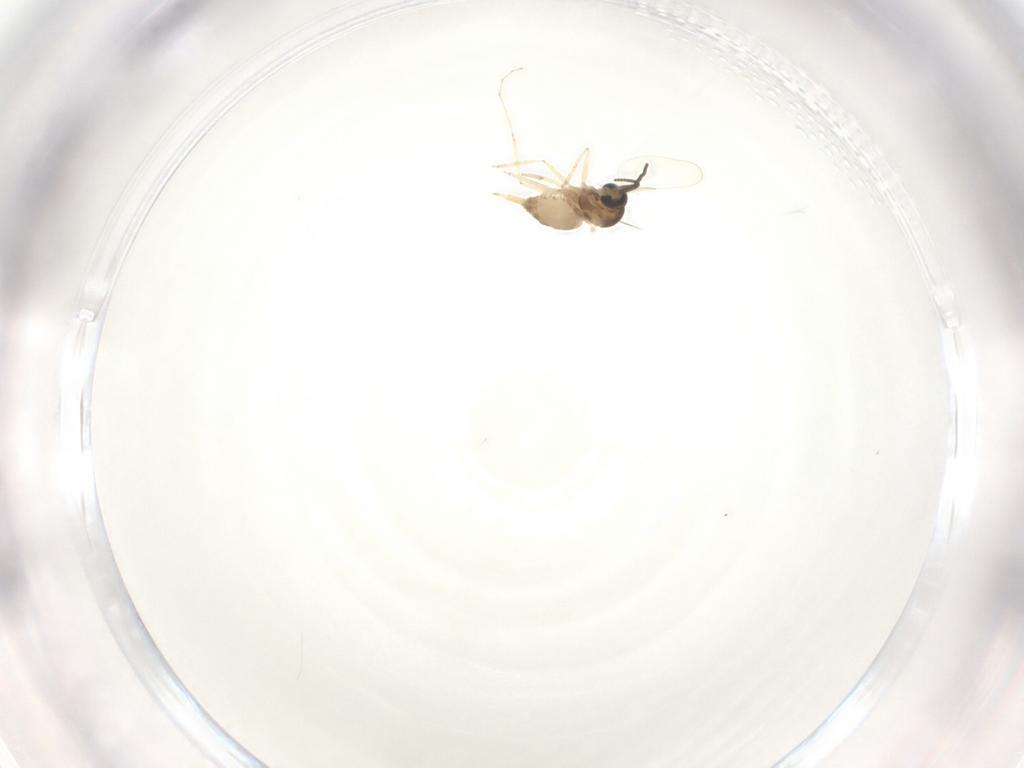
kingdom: Animalia
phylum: Arthropoda
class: Insecta
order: Diptera
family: Cecidomyiidae
